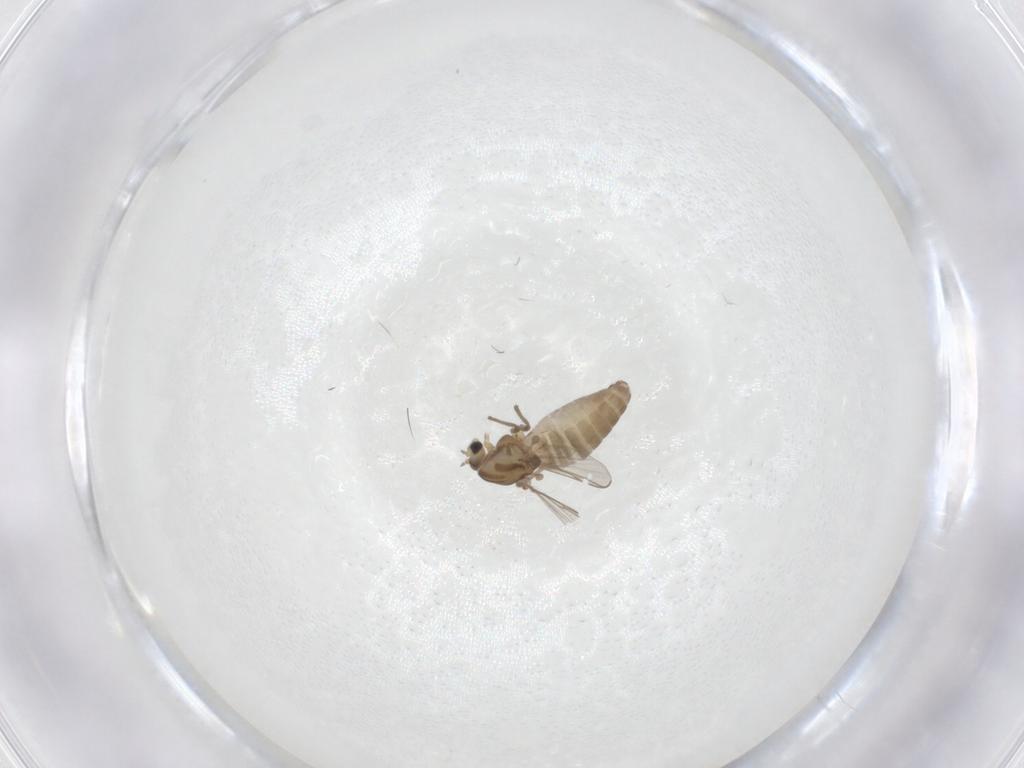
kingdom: Animalia
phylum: Arthropoda
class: Insecta
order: Diptera
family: Chironomidae
